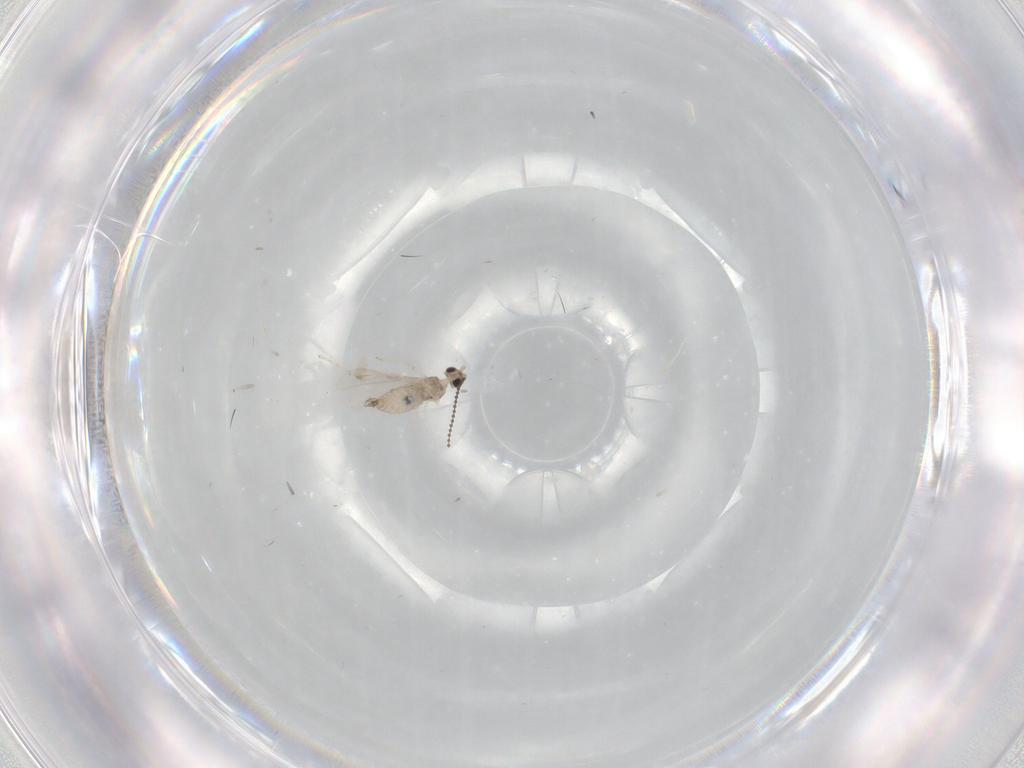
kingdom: Animalia
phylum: Arthropoda
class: Insecta
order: Diptera
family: Cecidomyiidae
